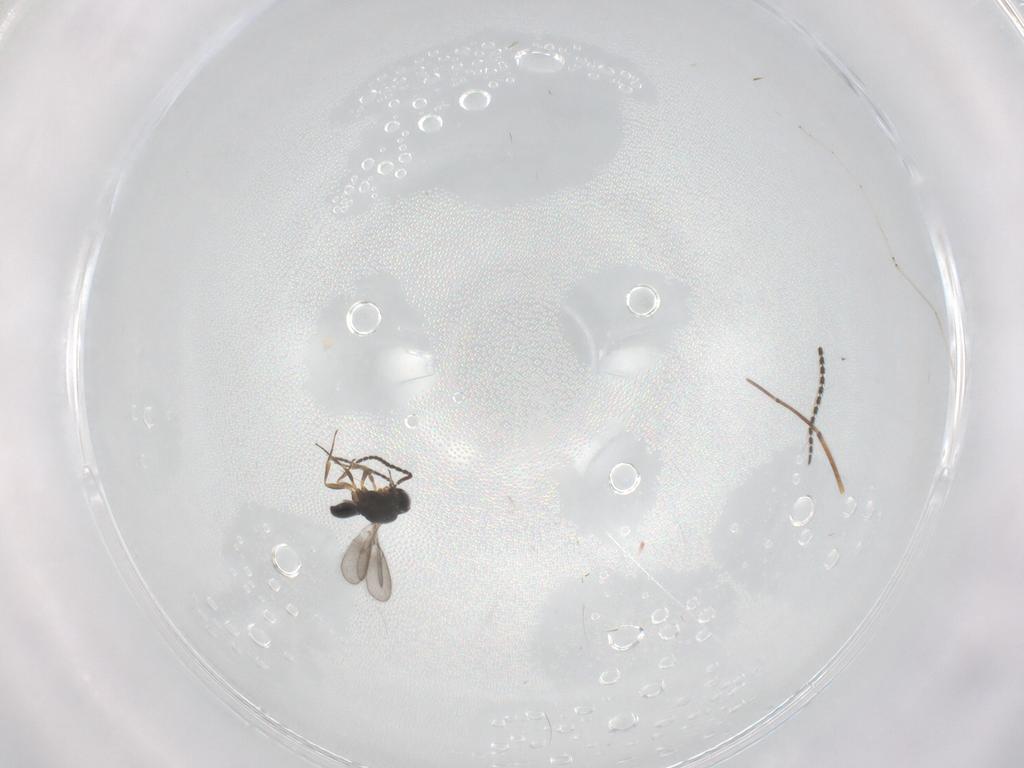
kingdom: Animalia
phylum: Arthropoda
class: Insecta
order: Hymenoptera
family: Scelionidae
